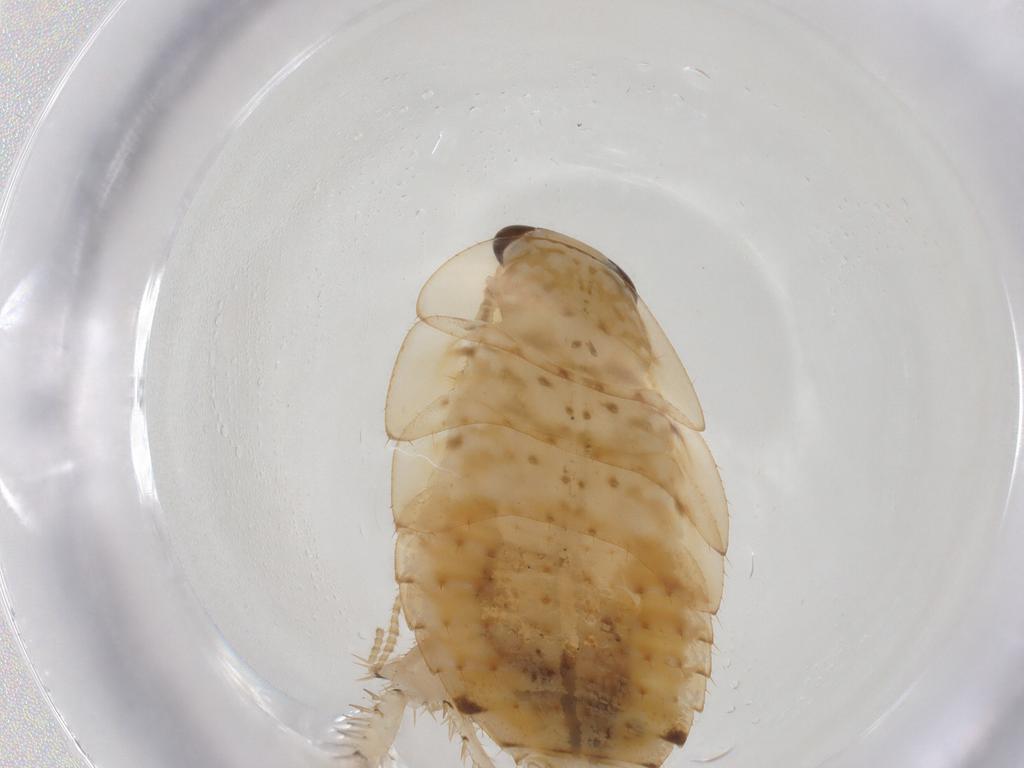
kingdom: Animalia
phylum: Arthropoda
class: Insecta
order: Blattodea
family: Ectobiidae
